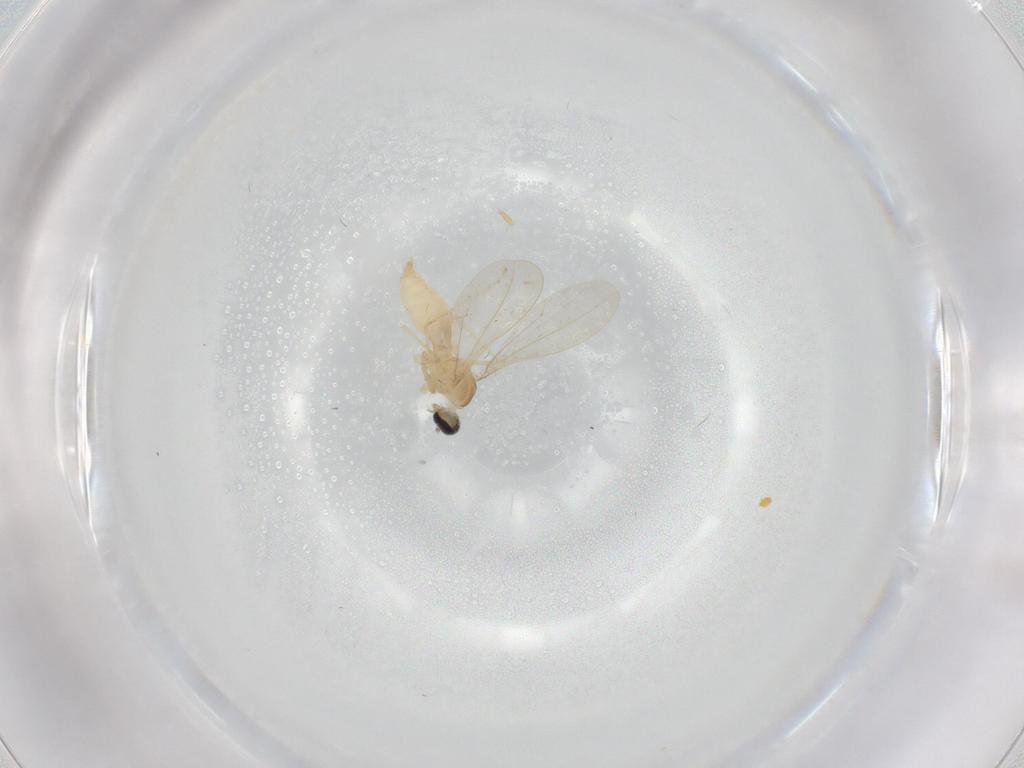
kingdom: Animalia
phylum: Arthropoda
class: Insecta
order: Diptera
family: Cecidomyiidae
